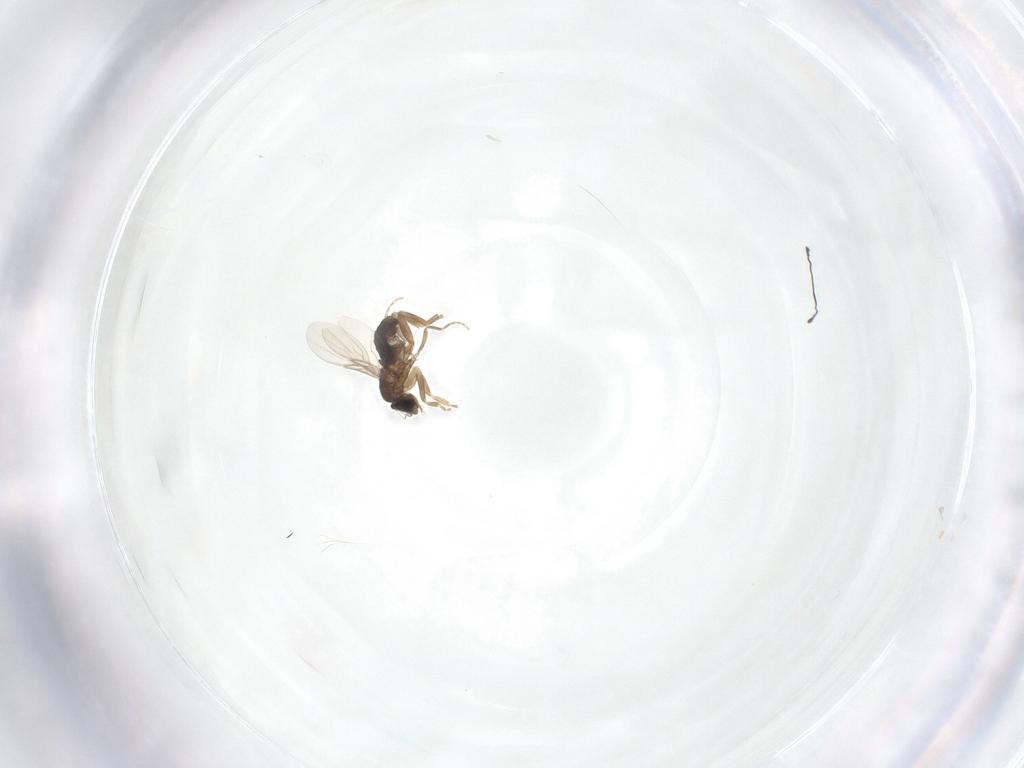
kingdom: Animalia
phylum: Arthropoda
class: Insecta
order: Diptera
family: Phoridae
